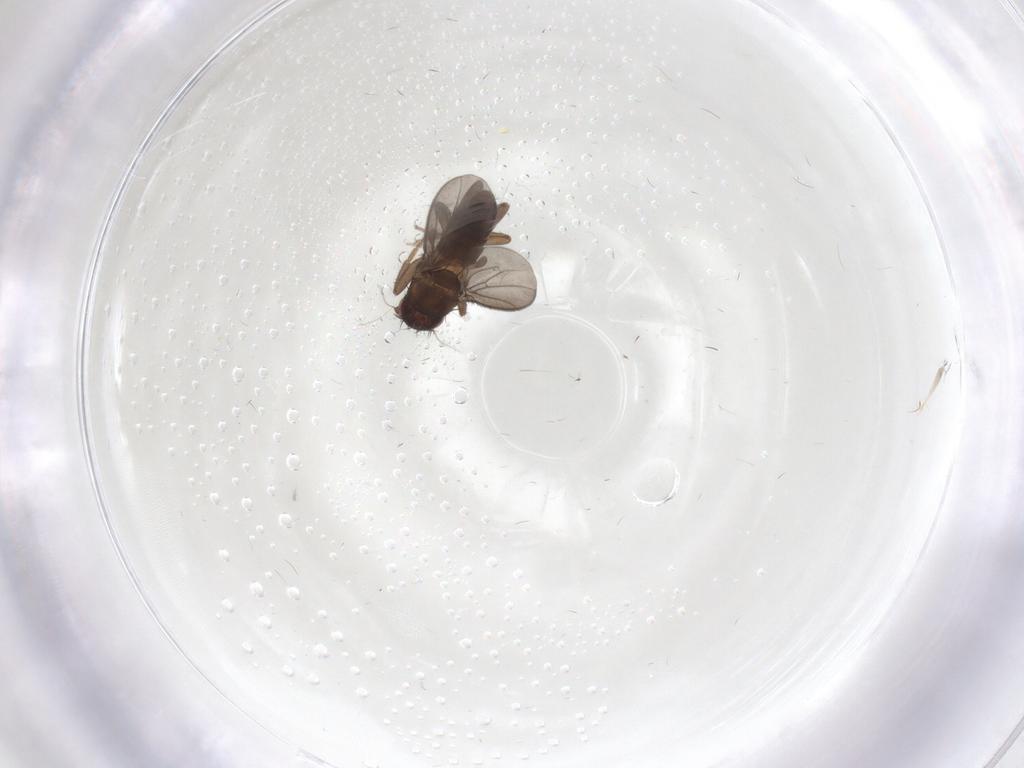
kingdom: Animalia
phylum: Arthropoda
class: Insecta
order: Diptera
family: Sphaeroceridae
